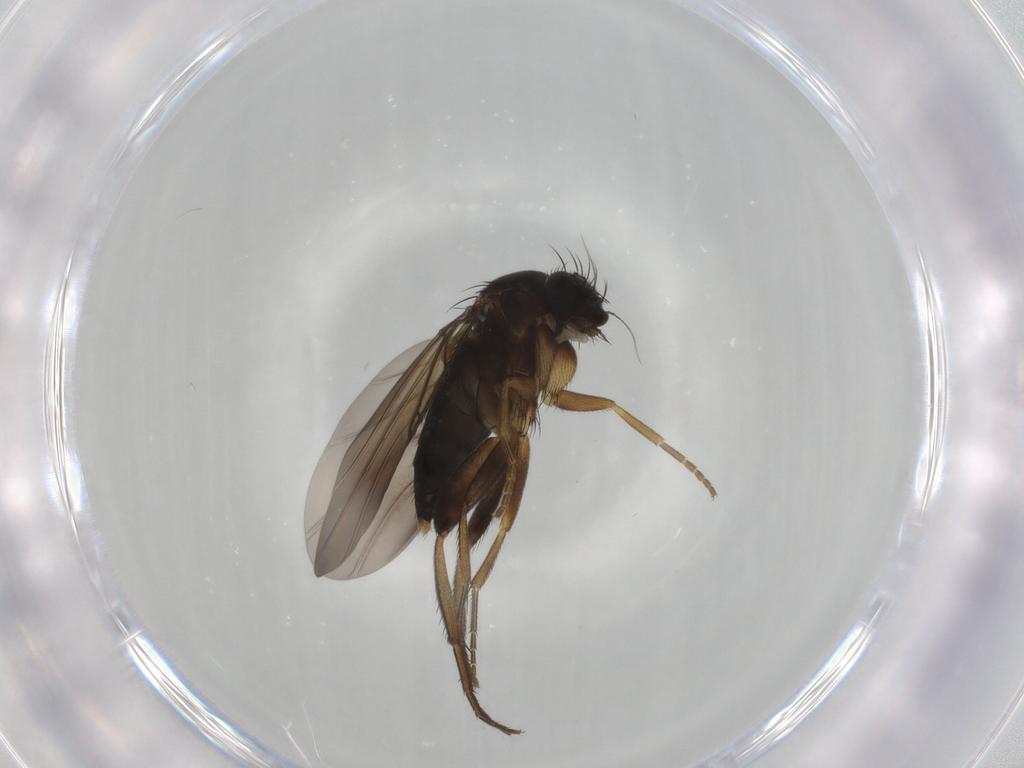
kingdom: Animalia
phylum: Arthropoda
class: Insecta
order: Diptera
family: Phoridae
